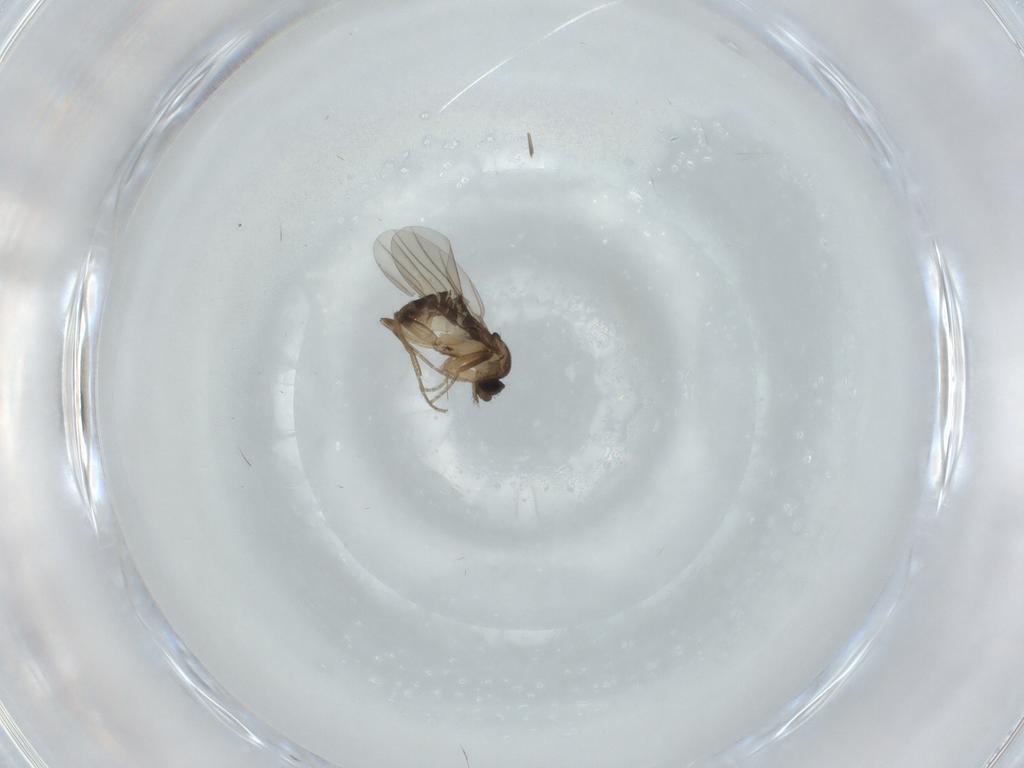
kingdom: Animalia
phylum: Arthropoda
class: Insecta
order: Diptera
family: Phoridae
